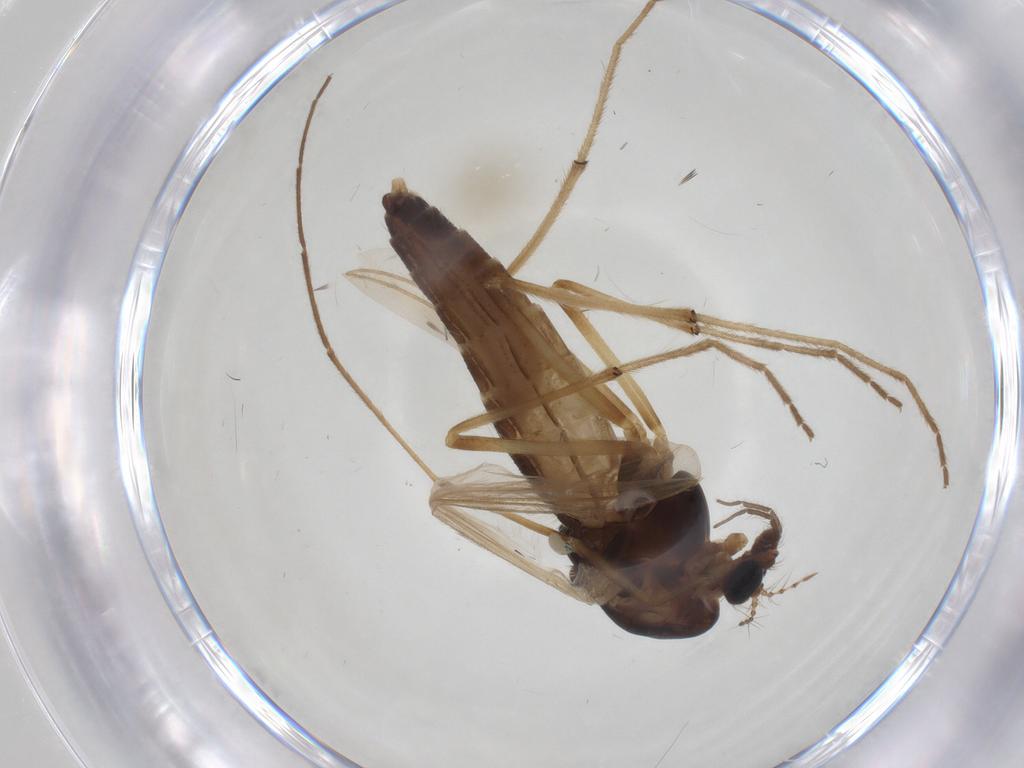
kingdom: Animalia
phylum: Arthropoda
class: Insecta
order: Diptera
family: Chironomidae
